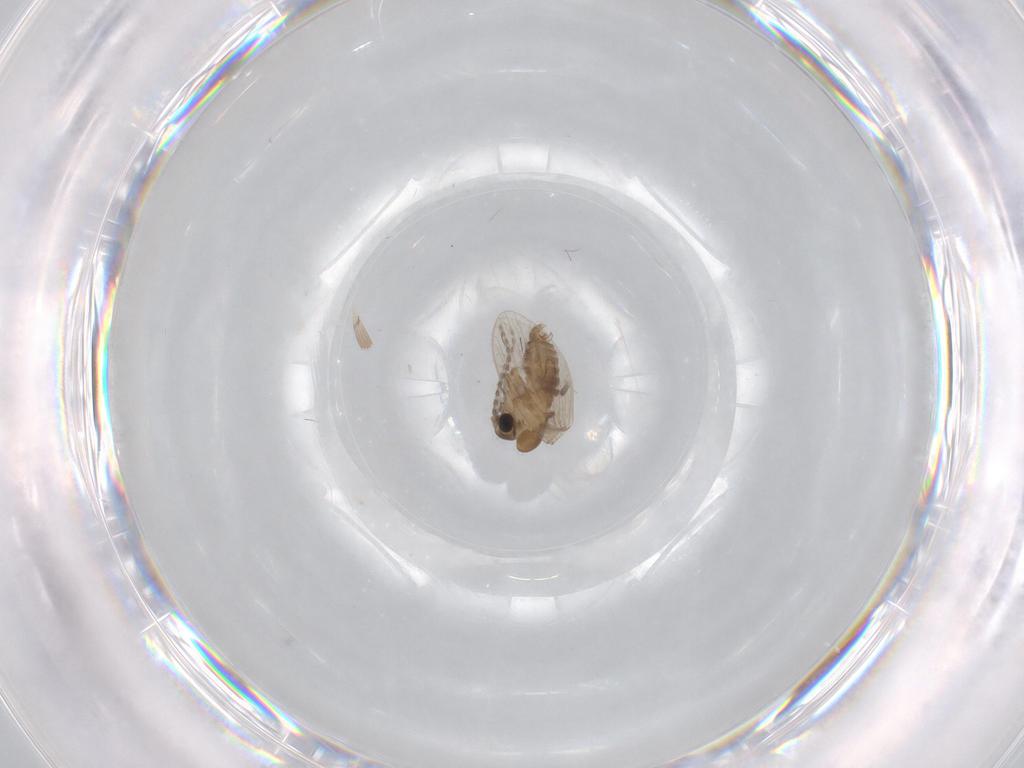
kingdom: Animalia
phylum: Arthropoda
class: Insecta
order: Diptera
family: Psychodidae
